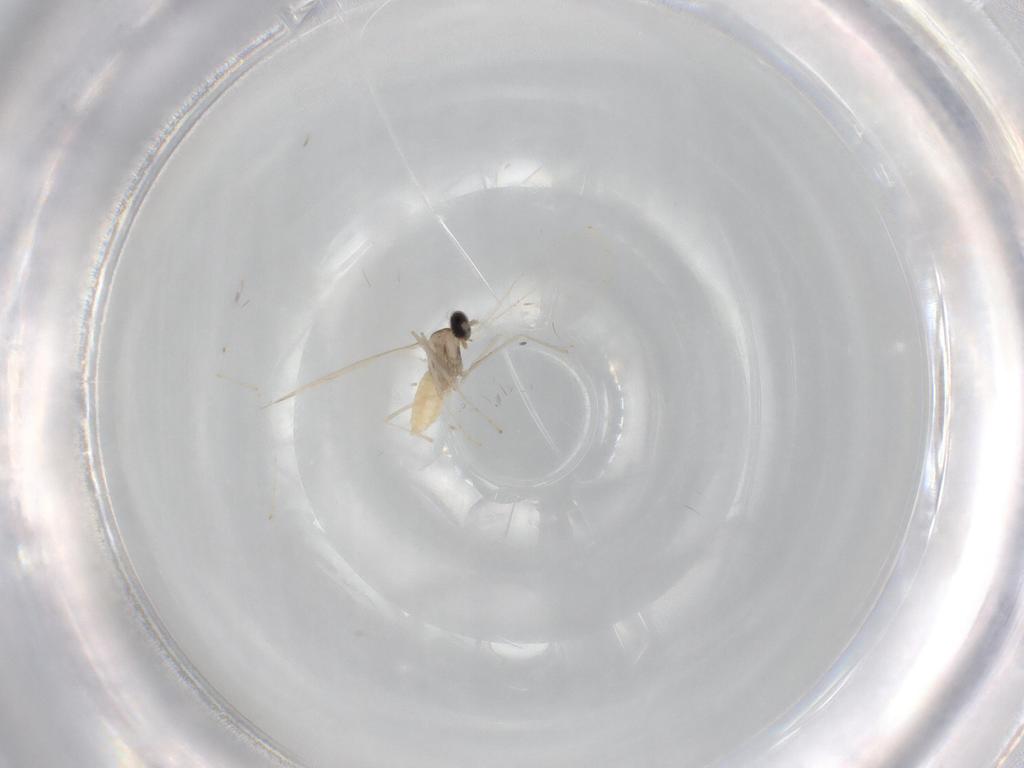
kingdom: Animalia
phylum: Arthropoda
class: Insecta
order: Diptera
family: Cecidomyiidae
